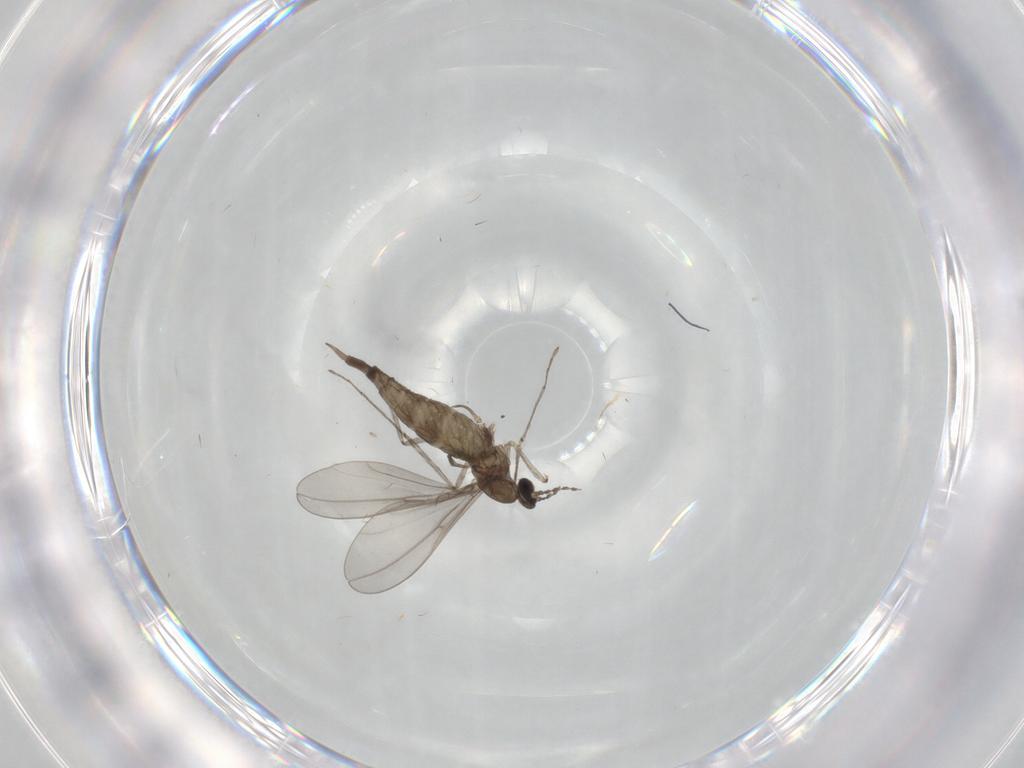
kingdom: Animalia
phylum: Arthropoda
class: Insecta
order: Diptera
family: Cecidomyiidae
